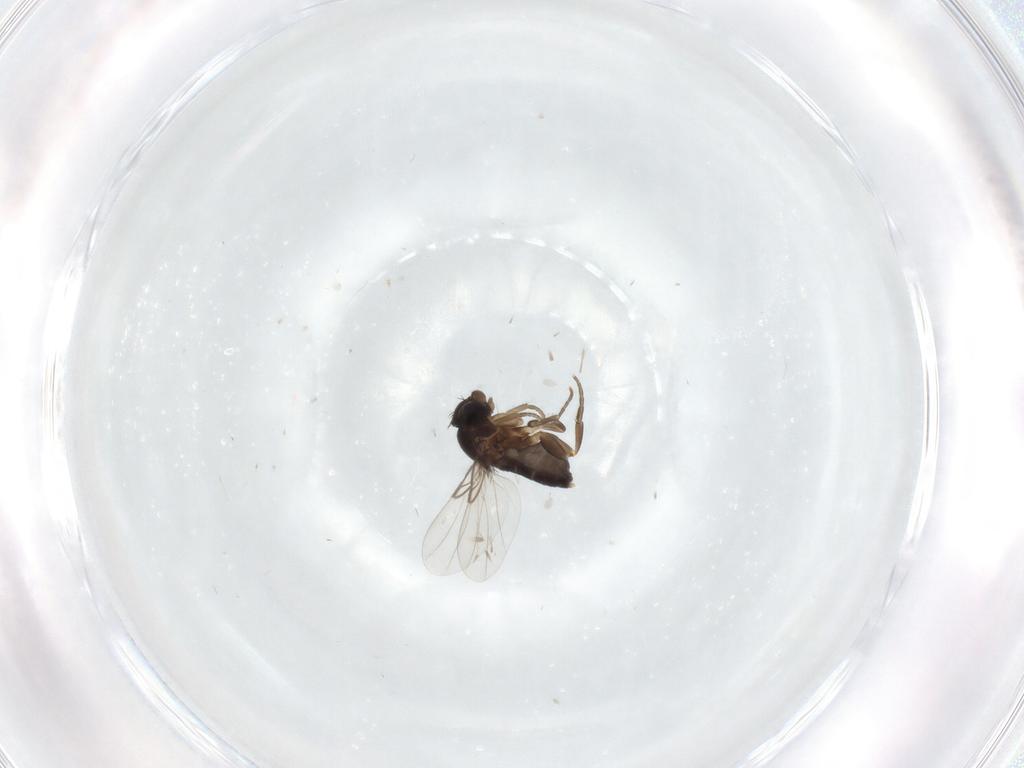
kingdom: Animalia
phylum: Arthropoda
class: Insecta
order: Diptera
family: Phoridae
